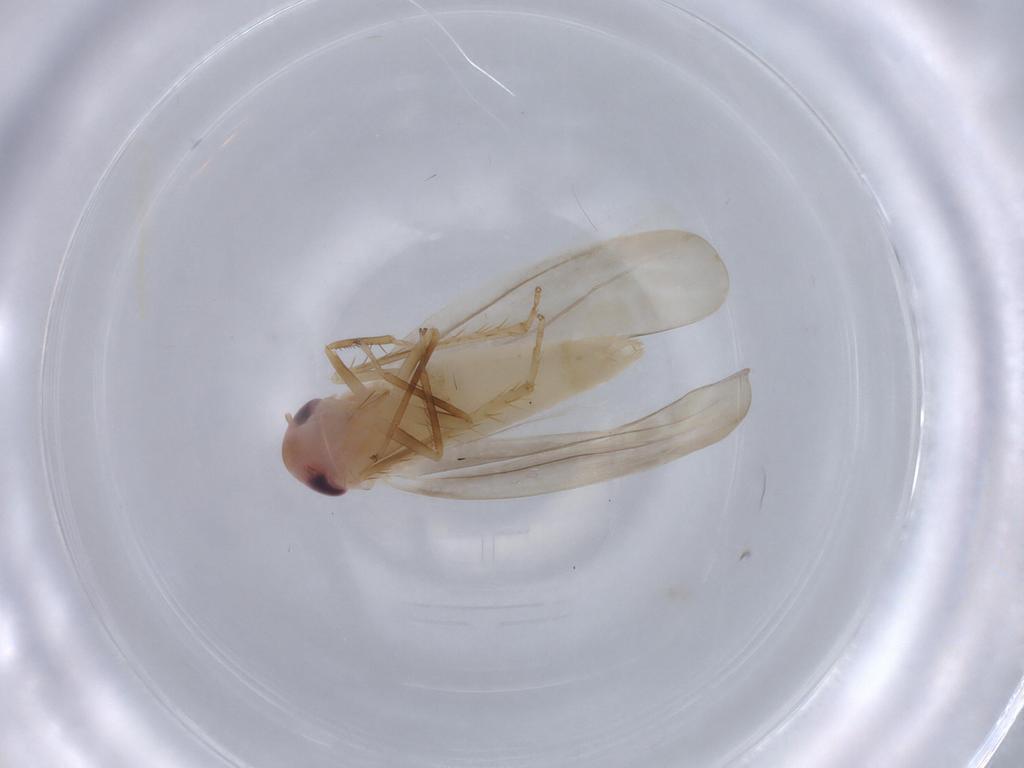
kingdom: Animalia
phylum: Arthropoda
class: Insecta
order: Hemiptera
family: Cicadellidae
